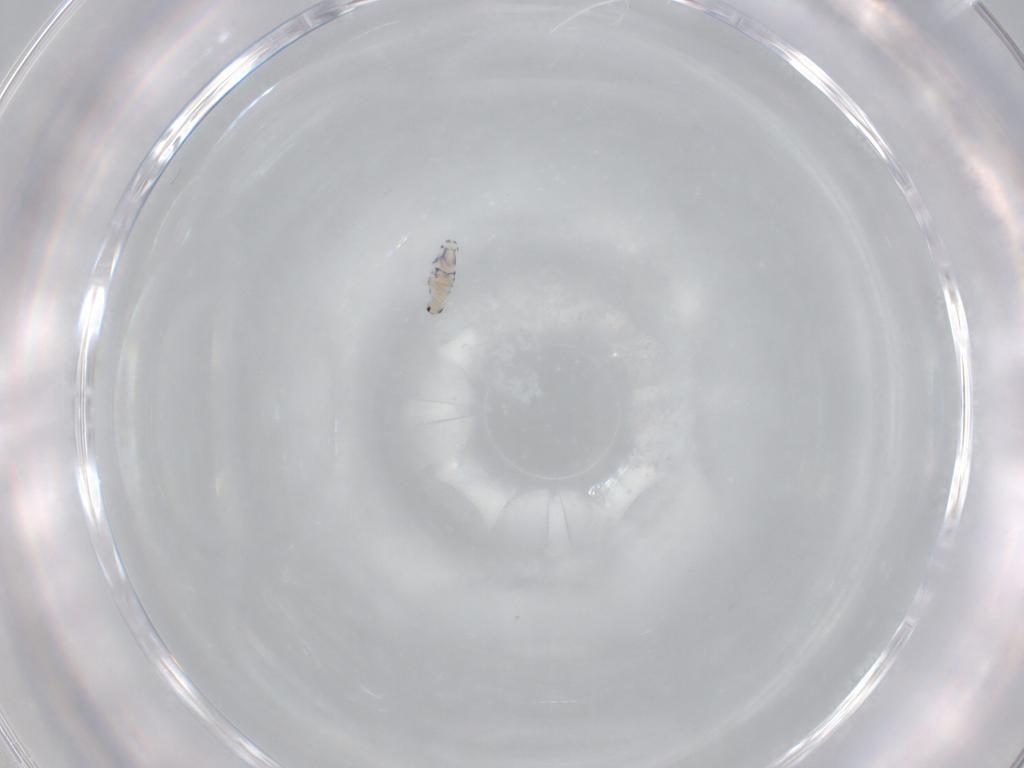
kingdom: Animalia
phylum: Arthropoda
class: Collembola
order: Entomobryomorpha
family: Entomobryidae
